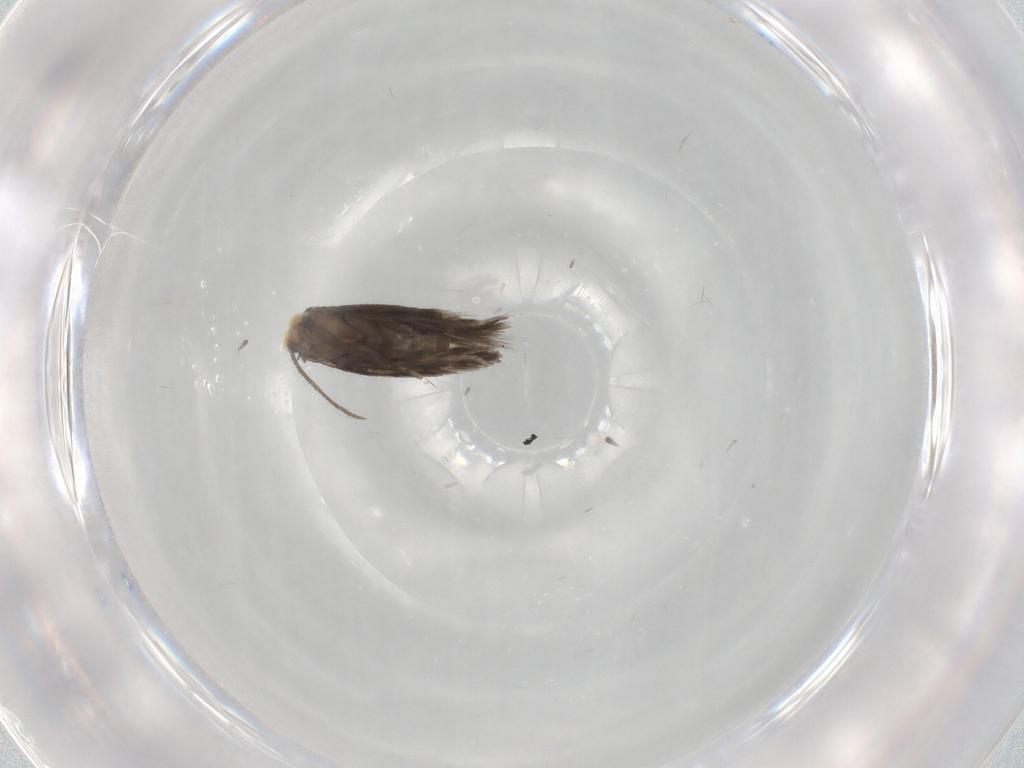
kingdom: Animalia
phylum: Arthropoda
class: Insecta
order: Lepidoptera
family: Nepticulidae
